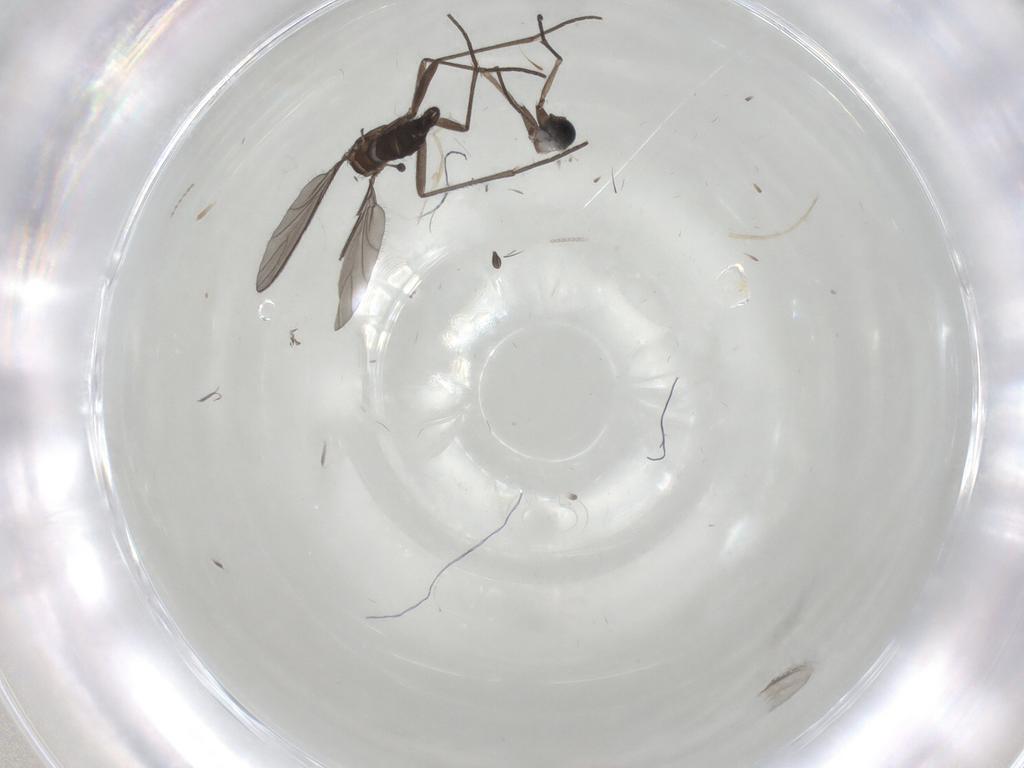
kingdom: Animalia
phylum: Arthropoda
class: Insecta
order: Diptera
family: Sciaridae
